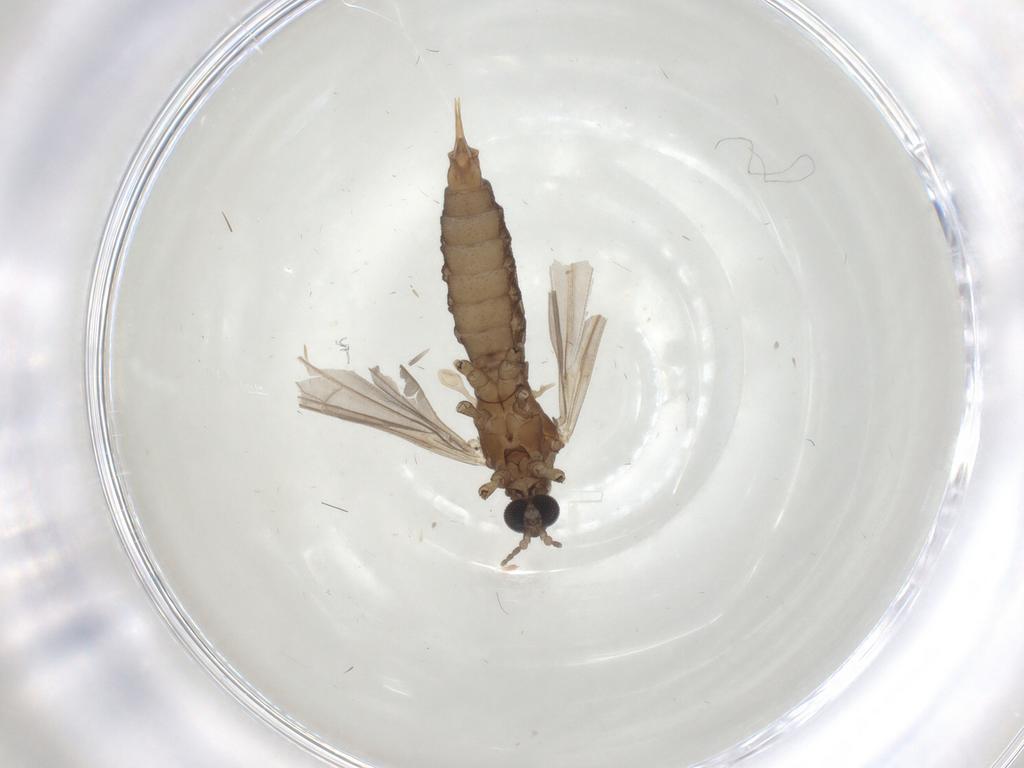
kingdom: Animalia
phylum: Arthropoda
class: Insecta
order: Diptera
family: Limoniidae
